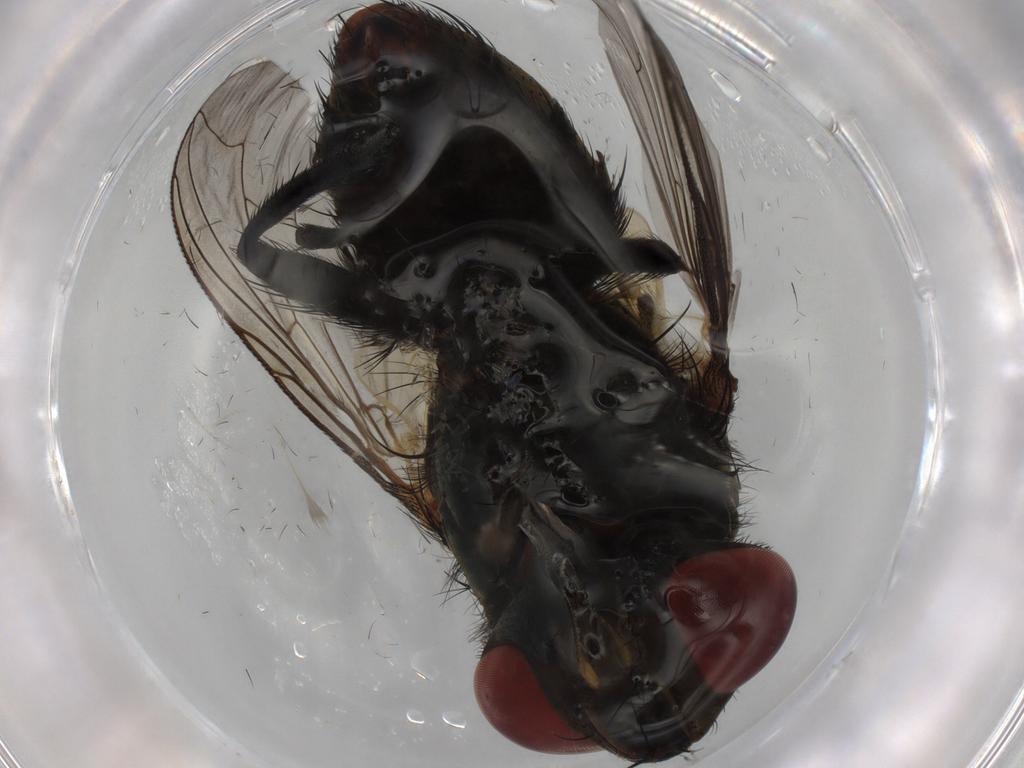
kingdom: Animalia
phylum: Arthropoda
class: Insecta
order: Diptera
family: Sarcophagidae
